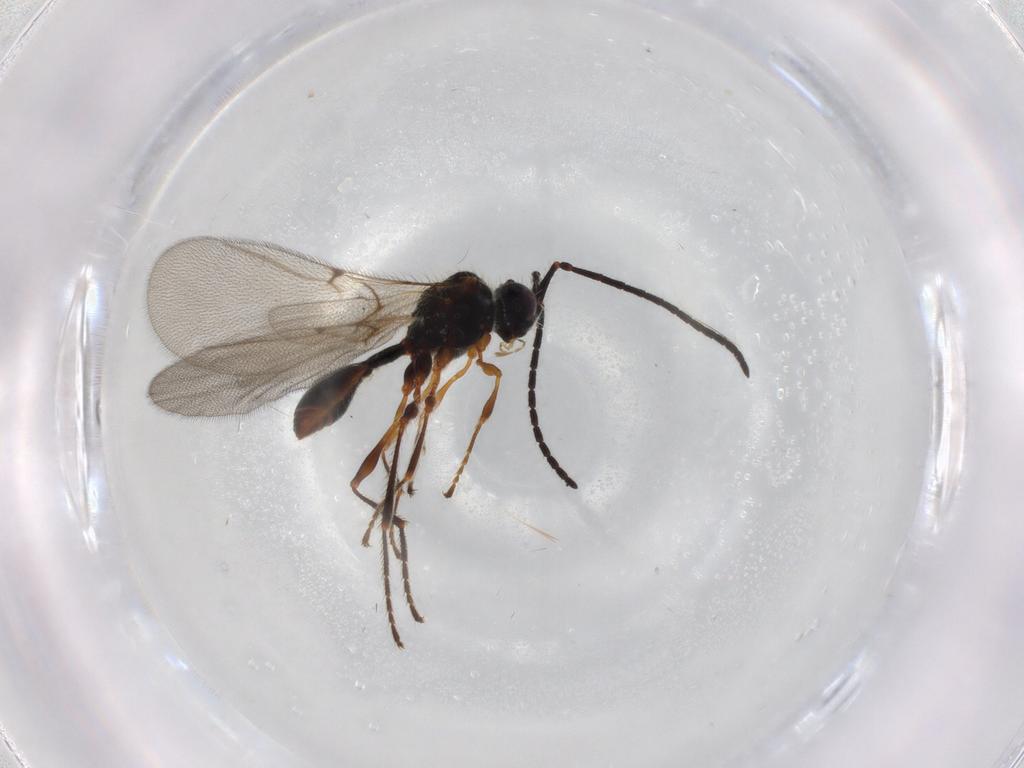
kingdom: Animalia
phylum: Arthropoda
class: Insecta
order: Hymenoptera
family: Diapriidae
